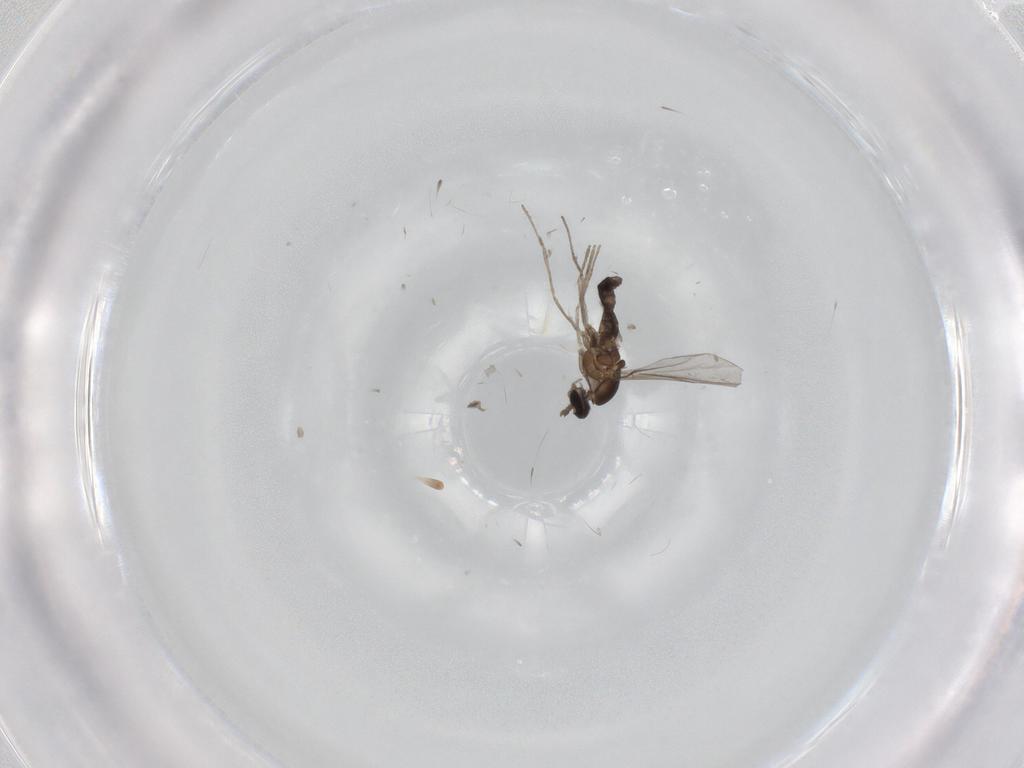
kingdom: Animalia
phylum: Arthropoda
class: Insecta
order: Diptera
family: Cecidomyiidae
